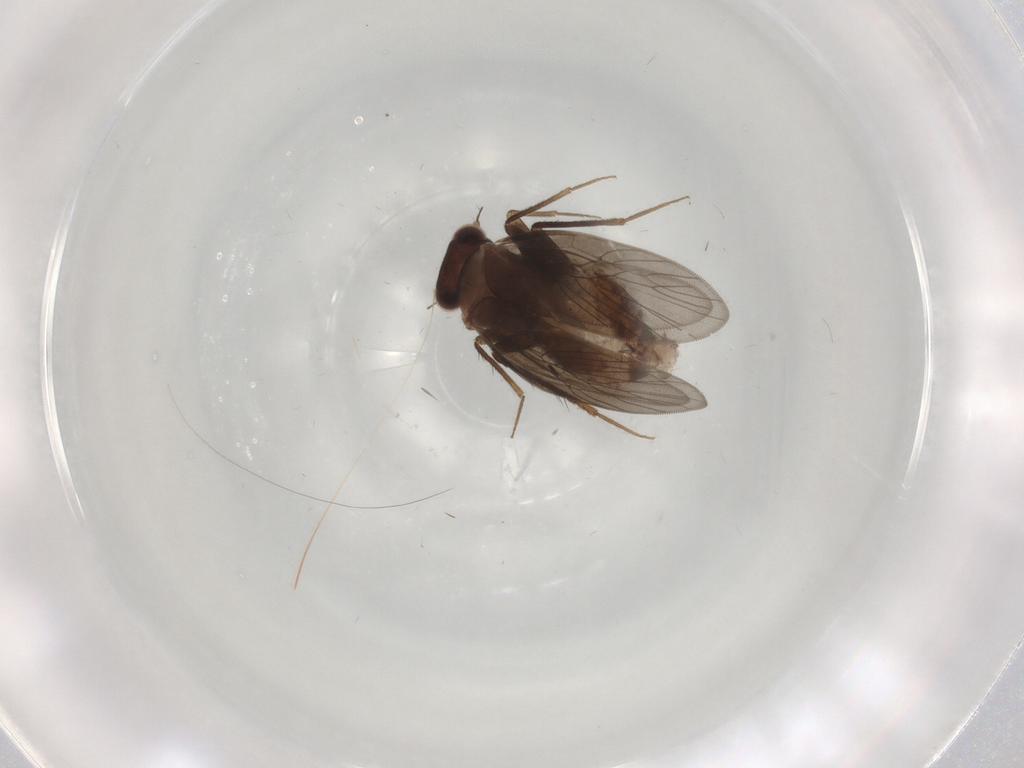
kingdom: Animalia
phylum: Arthropoda
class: Insecta
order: Psocodea
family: Lepidopsocidae
